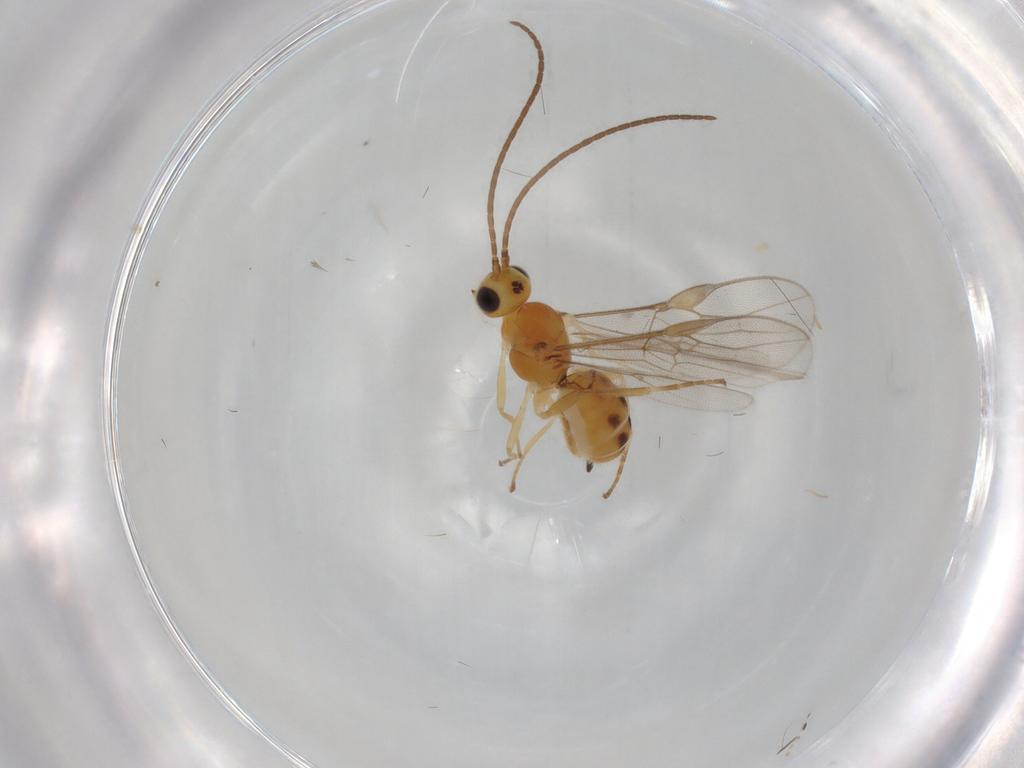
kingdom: Animalia
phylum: Arthropoda
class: Insecta
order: Hymenoptera
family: Braconidae
